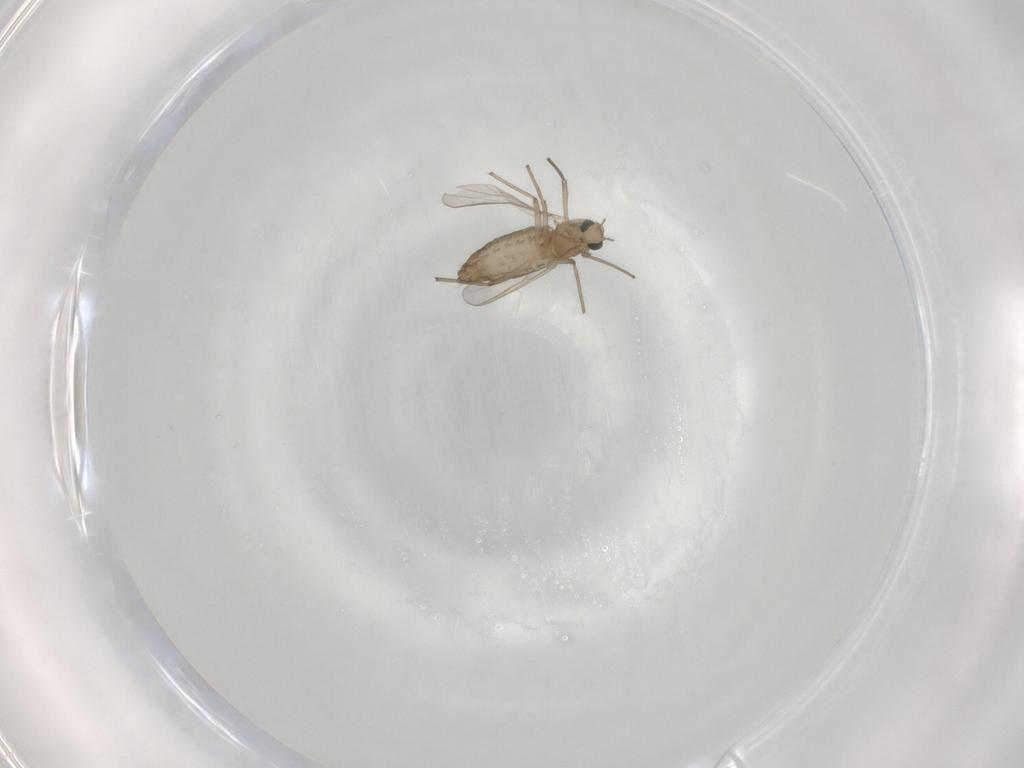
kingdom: Animalia
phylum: Arthropoda
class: Insecta
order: Diptera
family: Chironomidae
